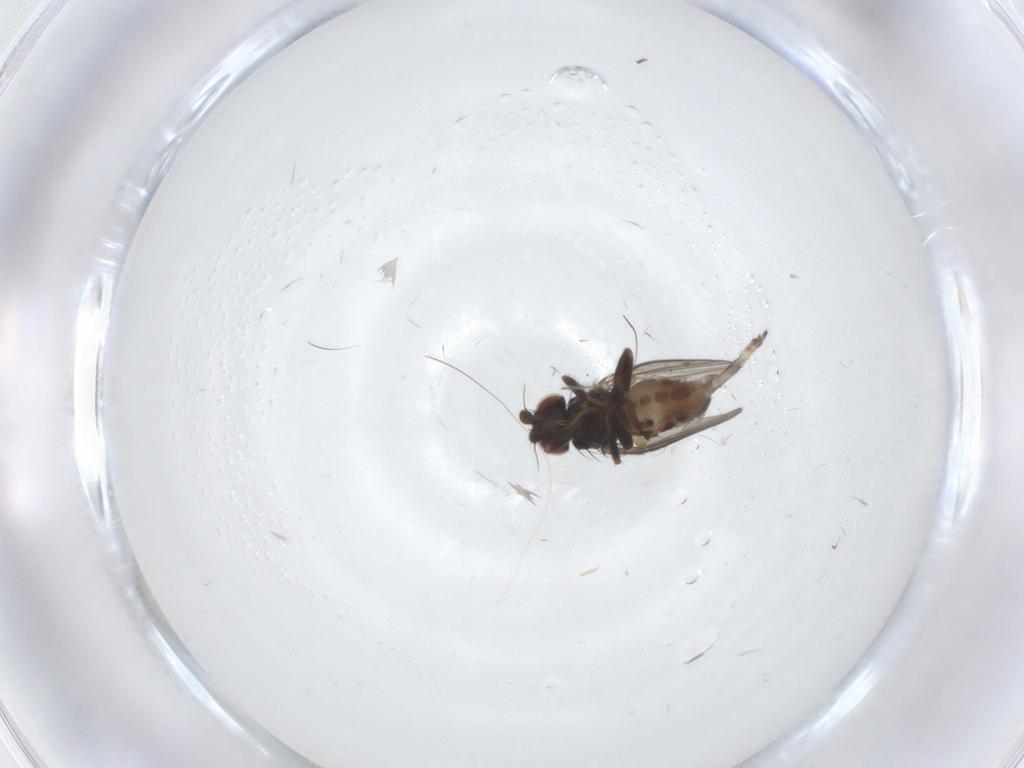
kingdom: Animalia
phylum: Arthropoda
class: Insecta
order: Diptera
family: Milichiidae
